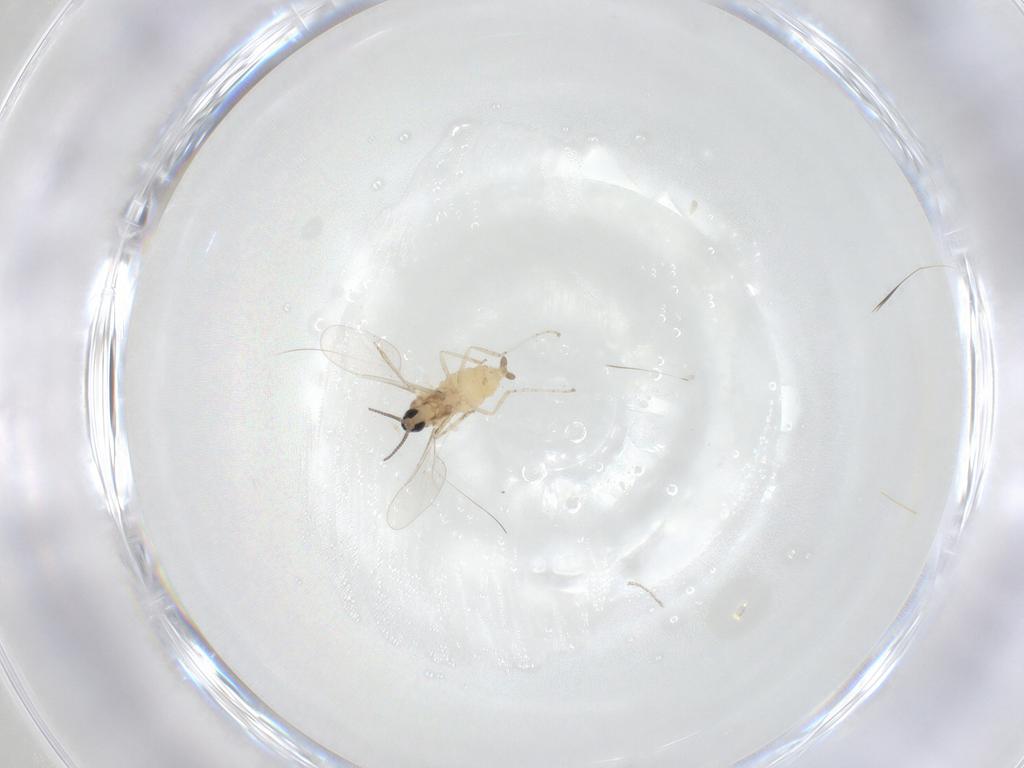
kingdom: Animalia
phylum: Arthropoda
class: Insecta
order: Diptera
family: Cecidomyiidae
